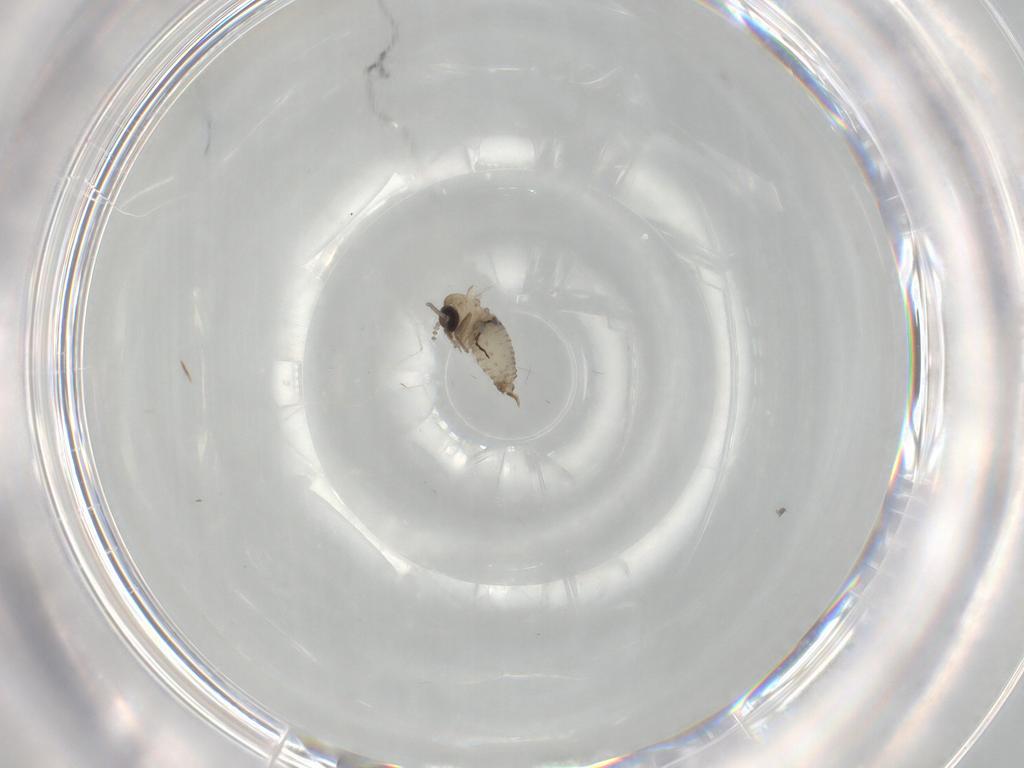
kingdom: Animalia
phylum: Arthropoda
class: Insecta
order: Diptera
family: Psychodidae
